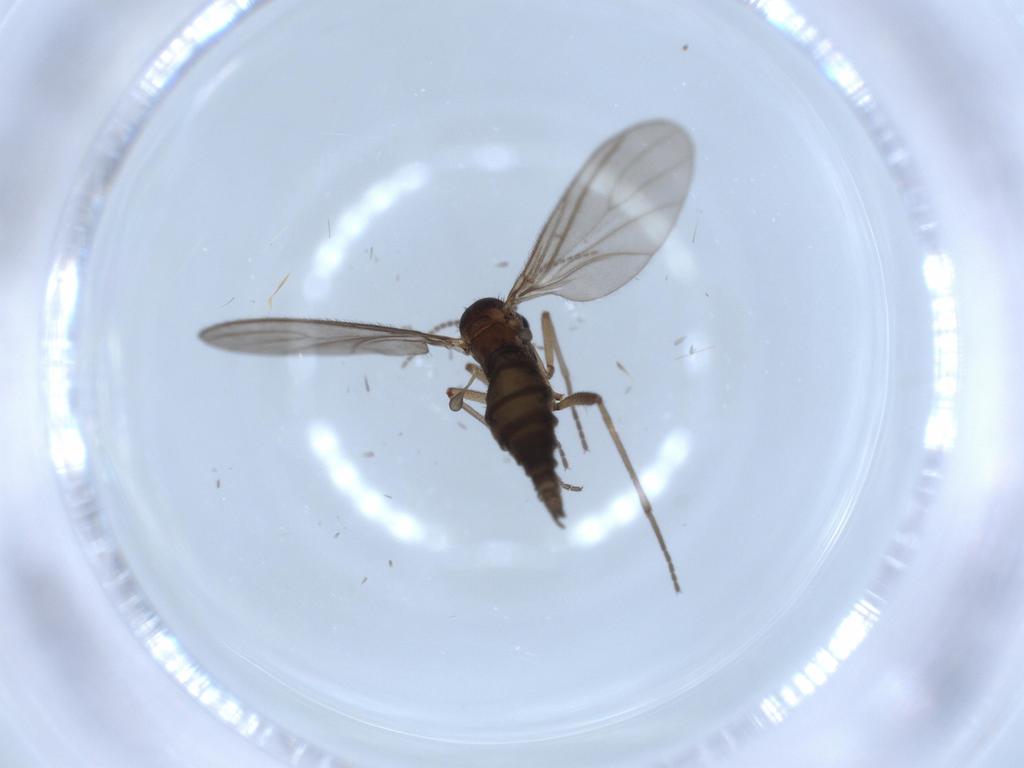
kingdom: Animalia
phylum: Arthropoda
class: Insecta
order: Diptera
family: Sciaridae
